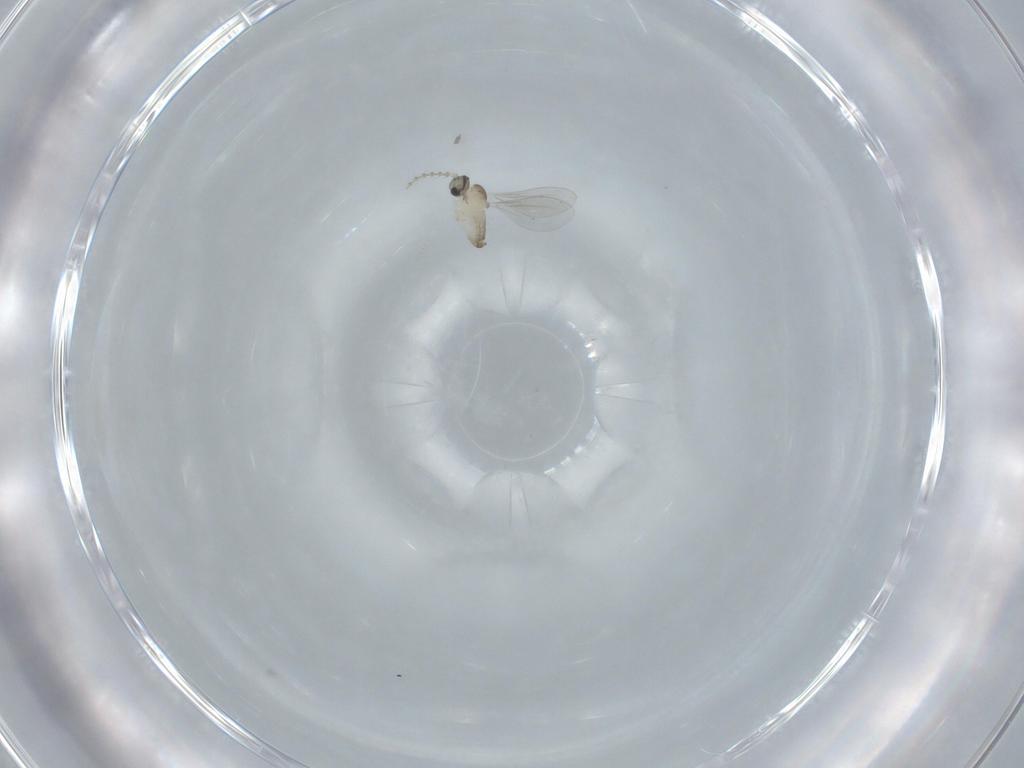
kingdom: Animalia
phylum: Arthropoda
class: Insecta
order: Diptera
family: Cecidomyiidae
